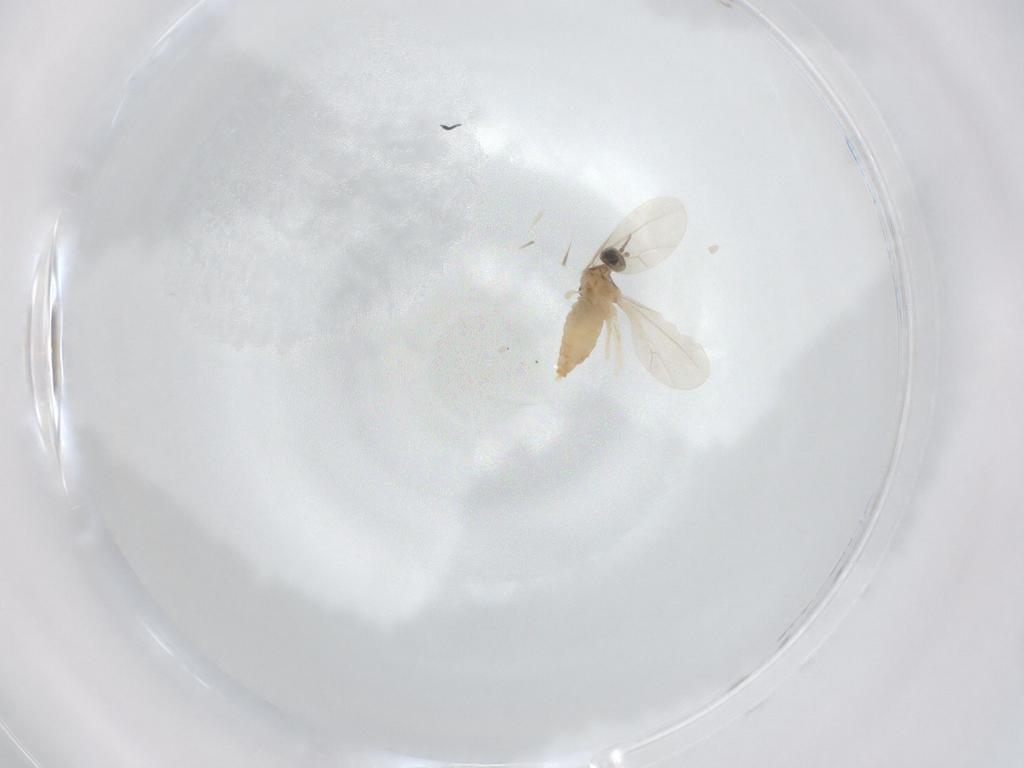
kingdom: Animalia
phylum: Arthropoda
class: Insecta
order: Diptera
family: Cecidomyiidae
